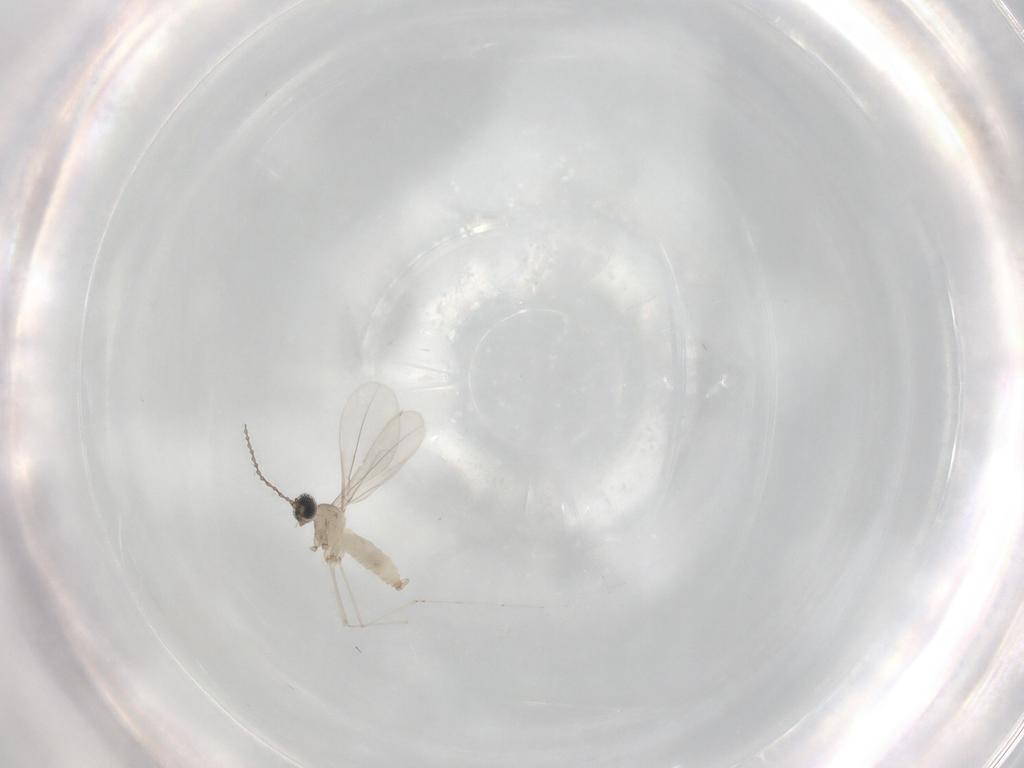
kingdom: Animalia
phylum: Arthropoda
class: Insecta
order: Diptera
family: Cecidomyiidae
